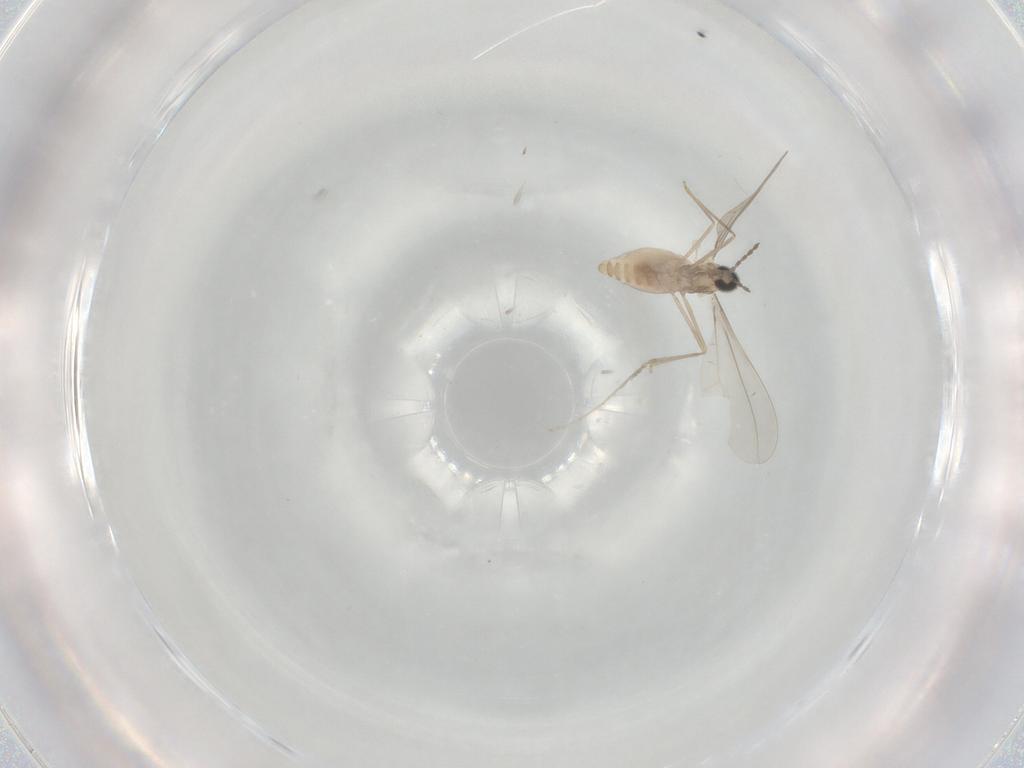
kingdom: Animalia
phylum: Arthropoda
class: Insecta
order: Diptera
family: Cecidomyiidae
